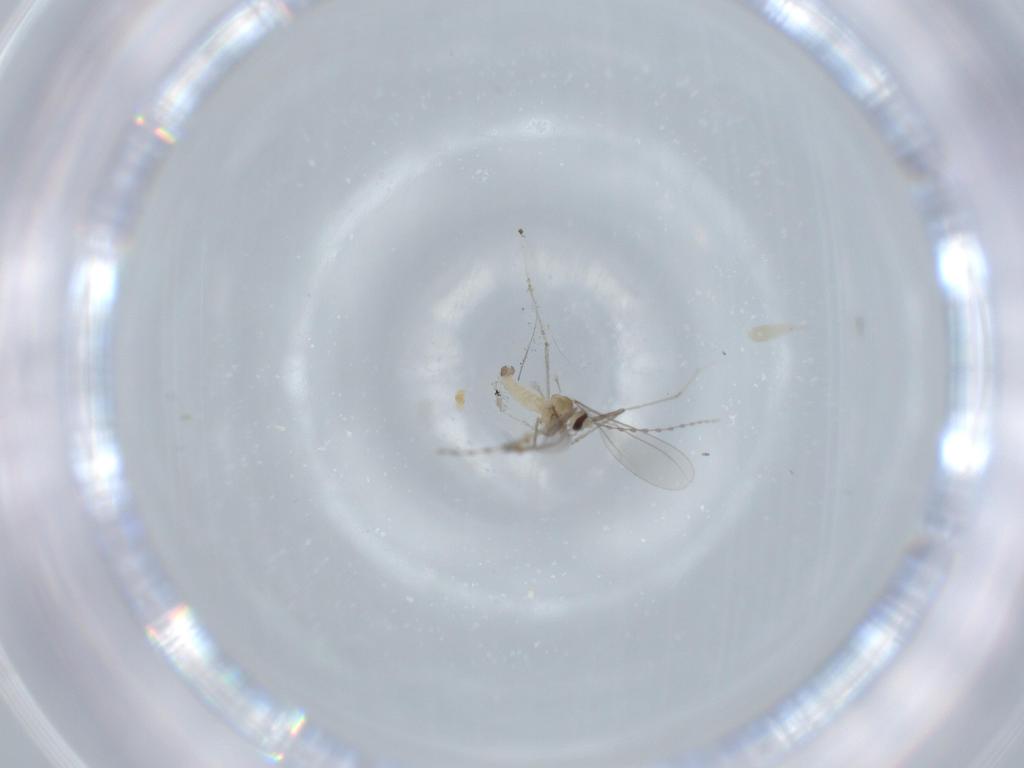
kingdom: Animalia
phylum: Arthropoda
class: Insecta
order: Diptera
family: Cecidomyiidae
